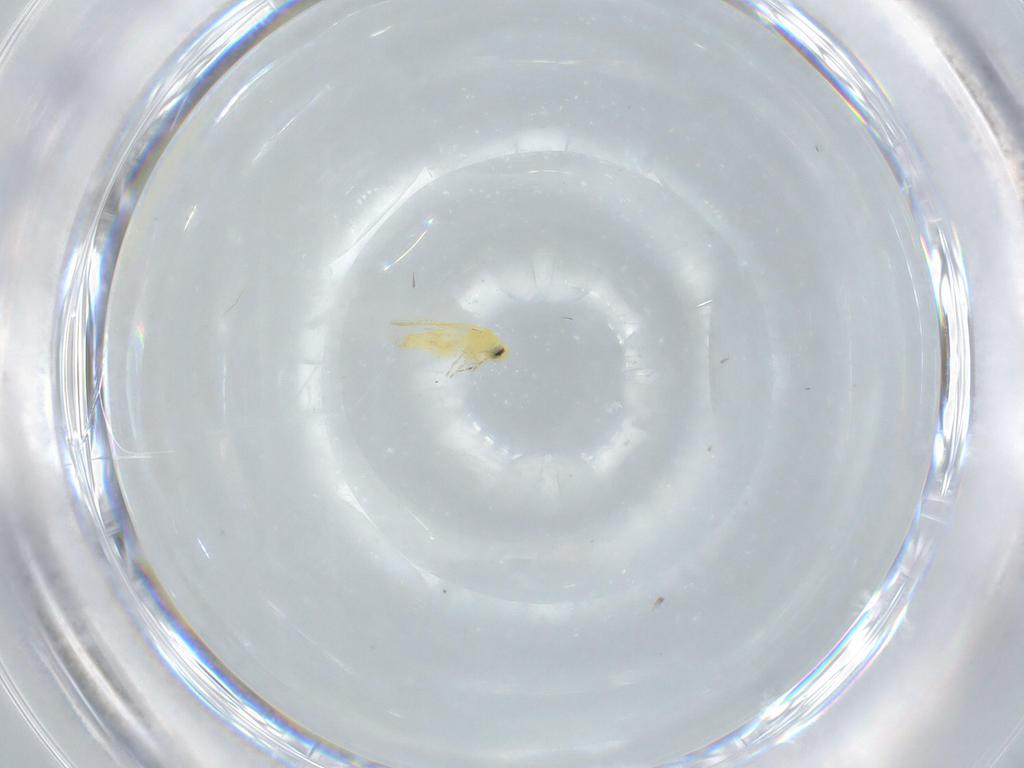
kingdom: Animalia
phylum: Arthropoda
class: Insecta
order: Hemiptera
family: Aleyrodidae
